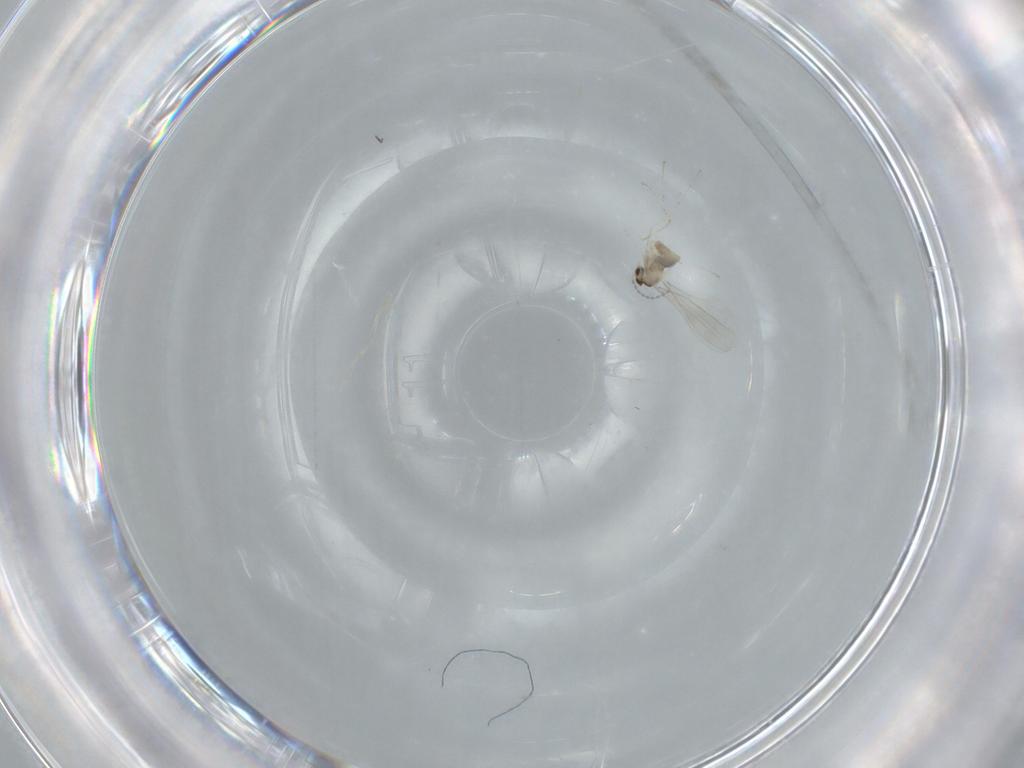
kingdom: Animalia
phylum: Arthropoda
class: Insecta
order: Diptera
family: Cecidomyiidae
